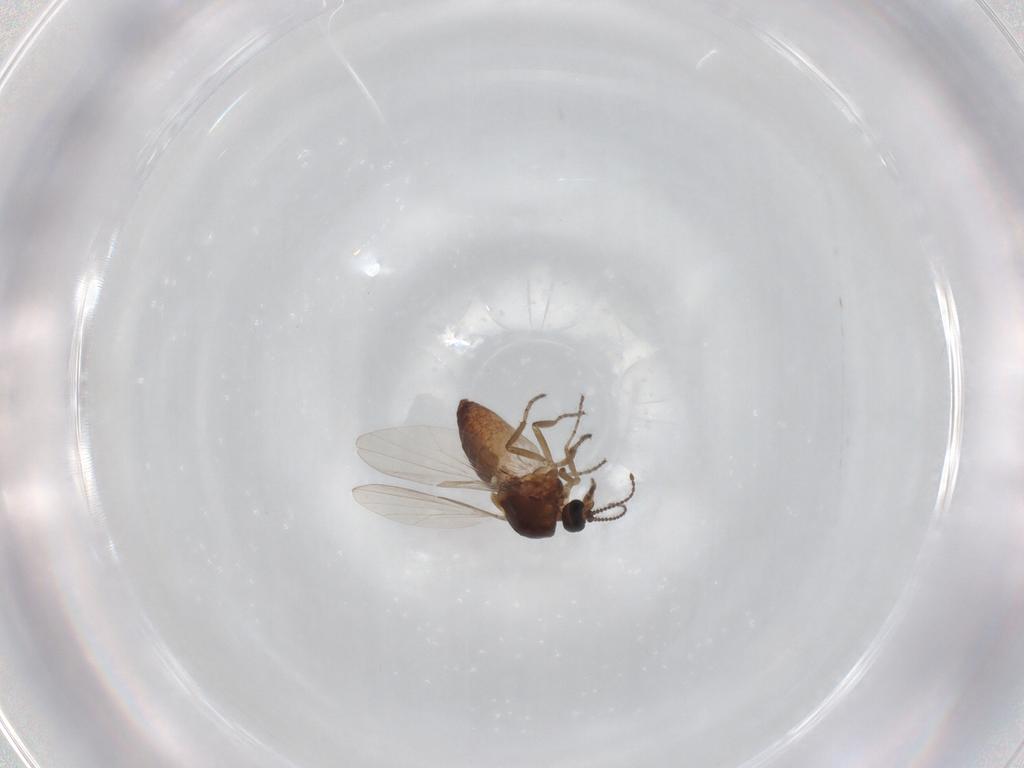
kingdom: Animalia
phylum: Arthropoda
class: Insecta
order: Diptera
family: Ceratopogonidae
